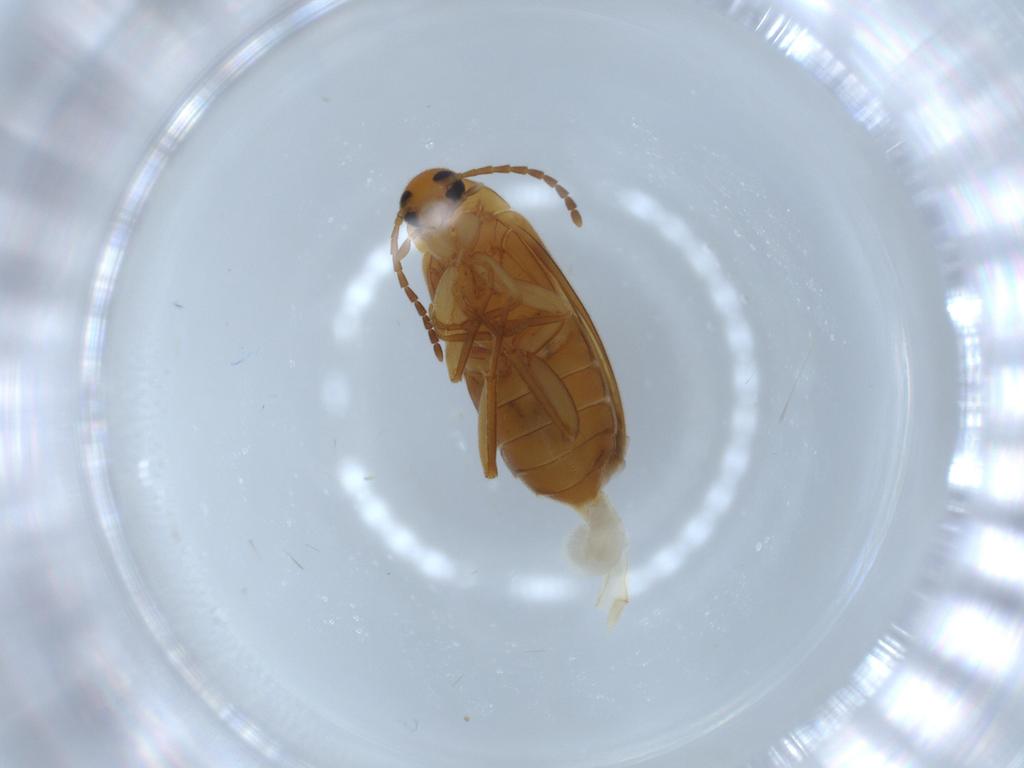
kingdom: Animalia
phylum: Arthropoda
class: Insecta
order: Coleoptera
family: Scraptiidae
